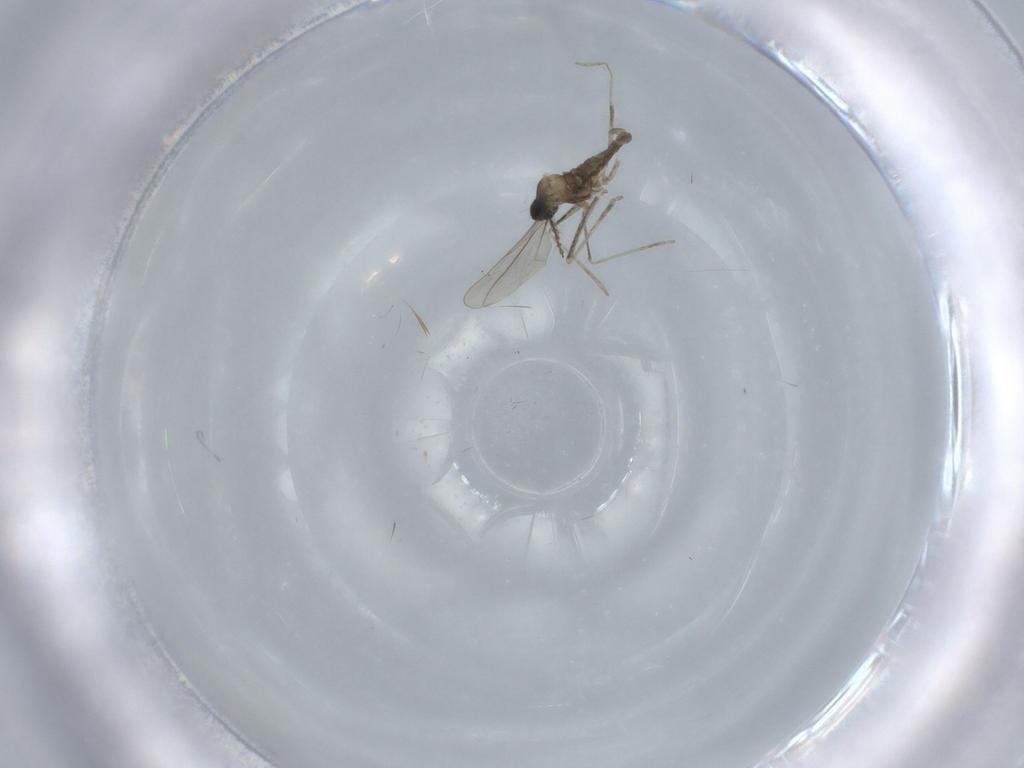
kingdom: Animalia
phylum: Arthropoda
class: Insecta
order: Diptera
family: Cecidomyiidae
